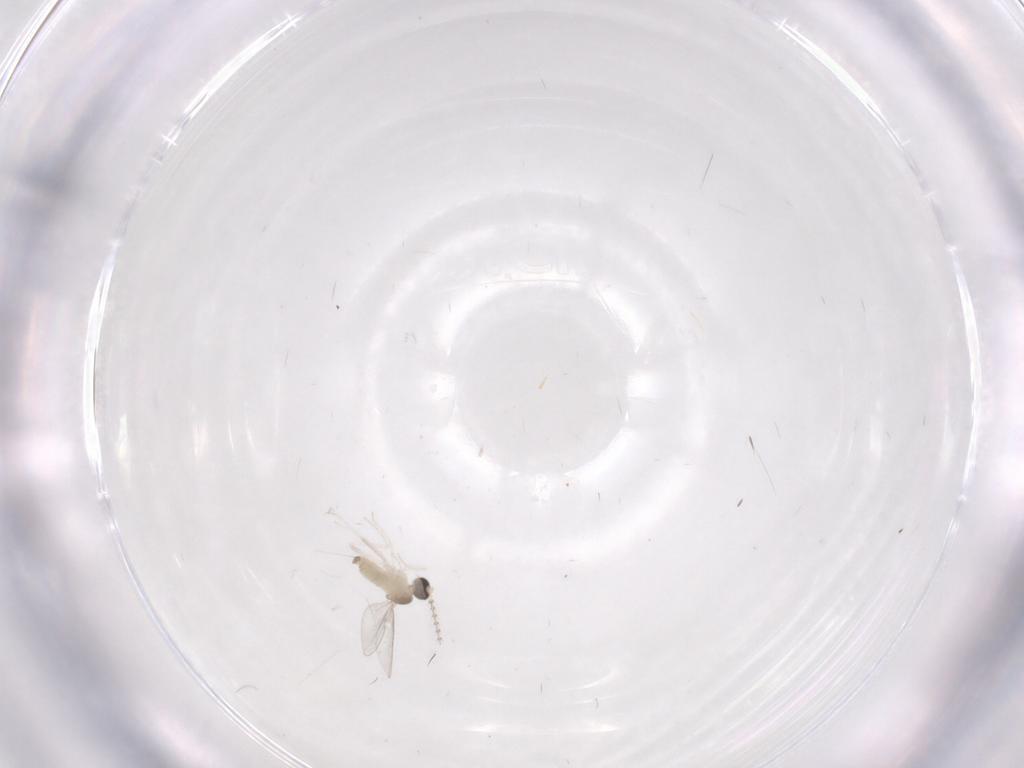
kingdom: Animalia
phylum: Arthropoda
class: Insecta
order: Diptera
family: Cecidomyiidae
